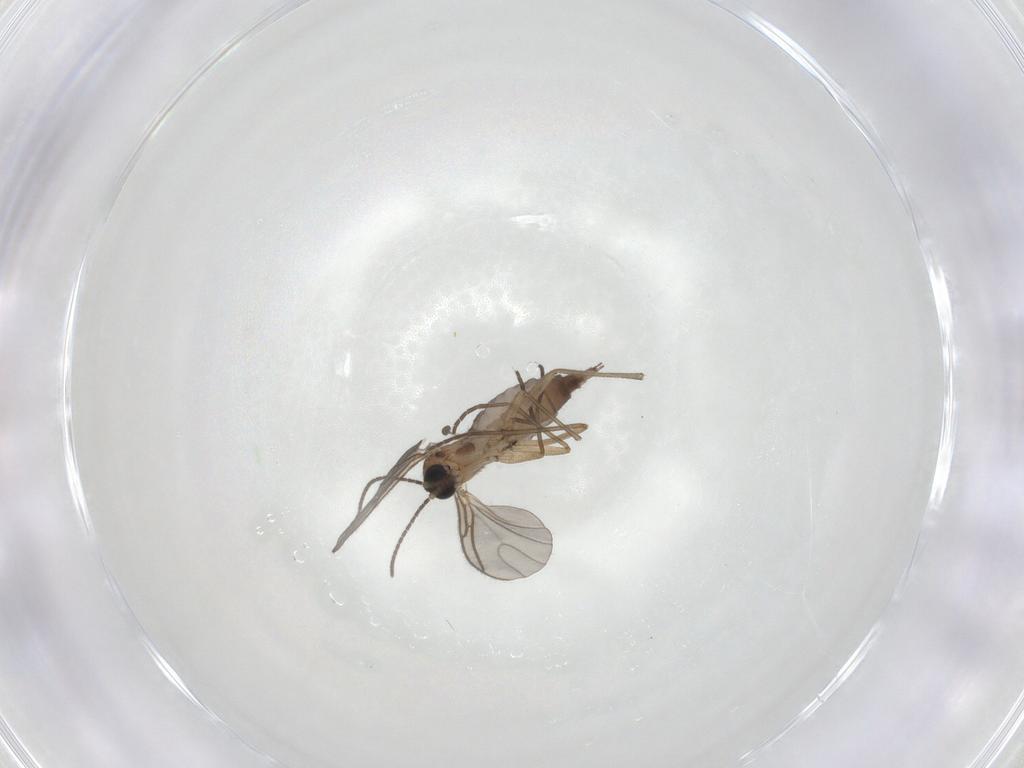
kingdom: Animalia
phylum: Arthropoda
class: Insecta
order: Diptera
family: Sciaridae
